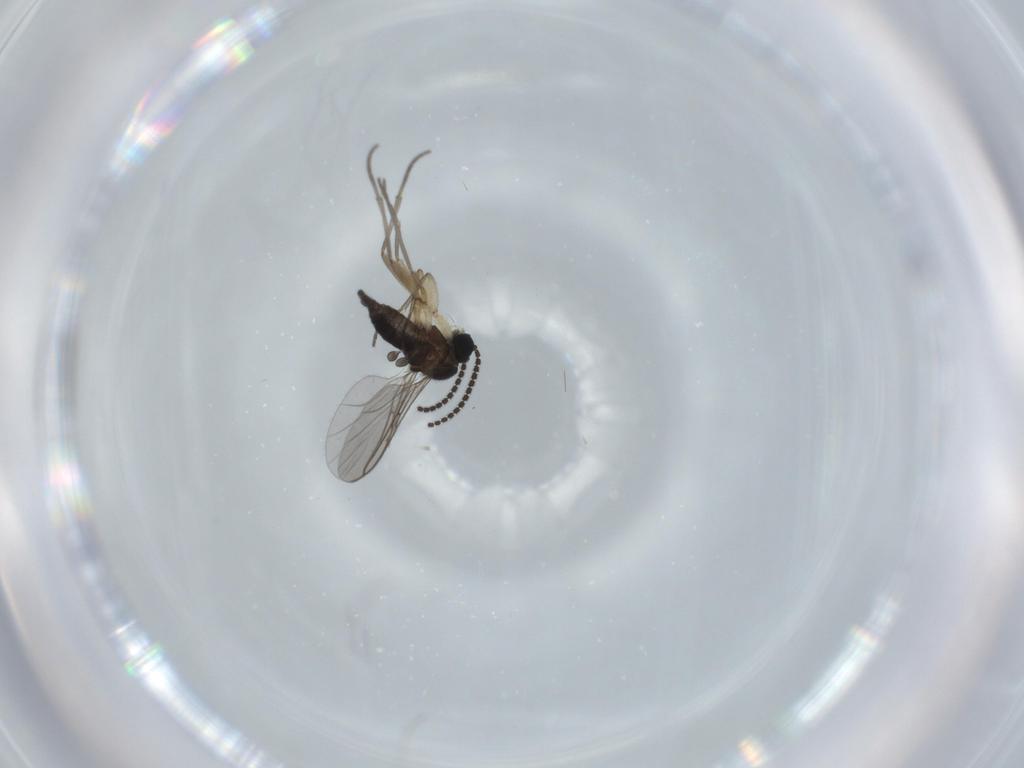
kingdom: Animalia
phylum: Arthropoda
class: Insecta
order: Diptera
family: Sciaridae
